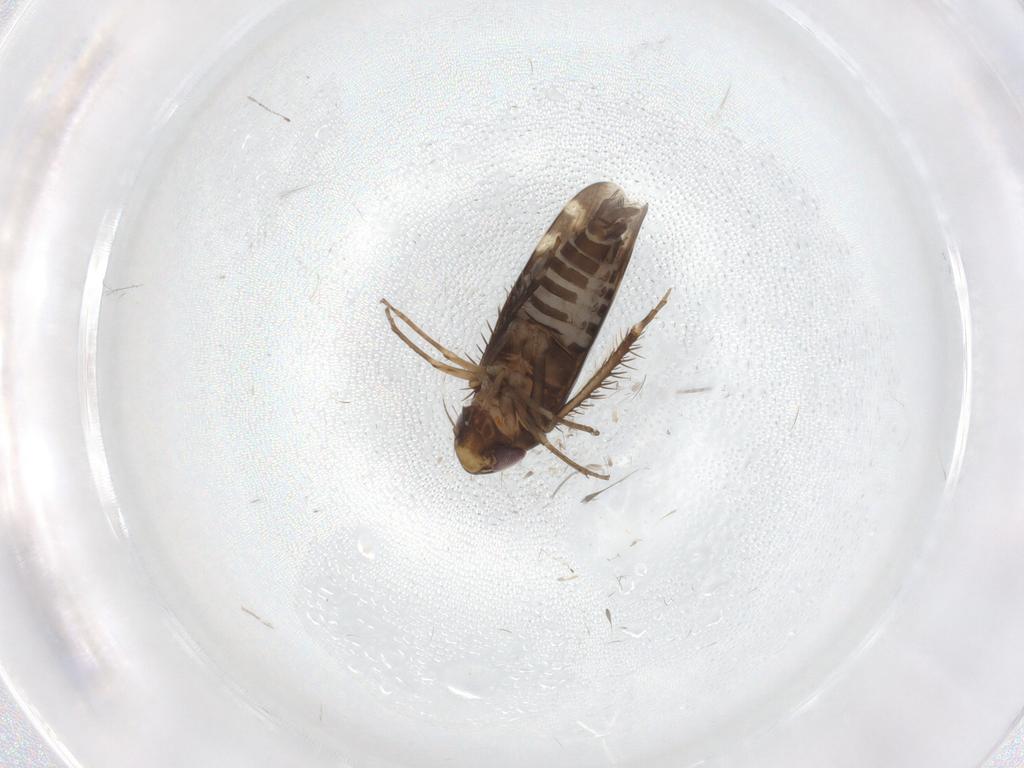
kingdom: Animalia
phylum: Arthropoda
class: Insecta
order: Hemiptera
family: Cicadellidae
